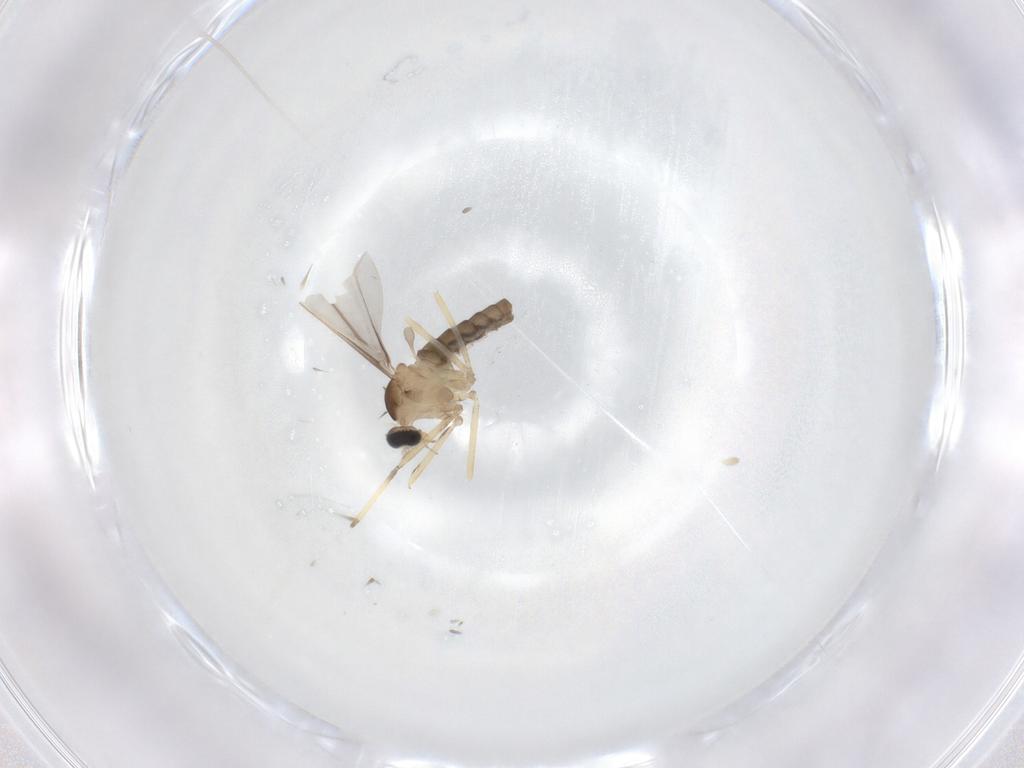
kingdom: Animalia
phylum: Arthropoda
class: Insecta
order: Diptera
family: Cecidomyiidae
